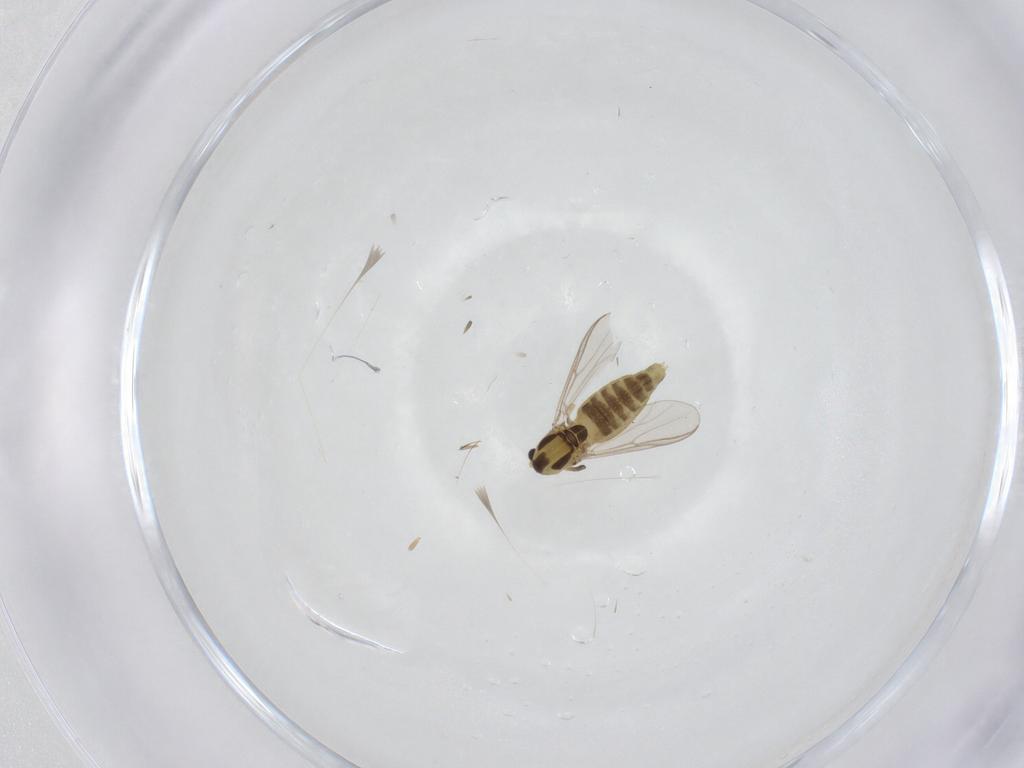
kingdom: Animalia
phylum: Arthropoda
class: Insecta
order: Diptera
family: Chironomidae
